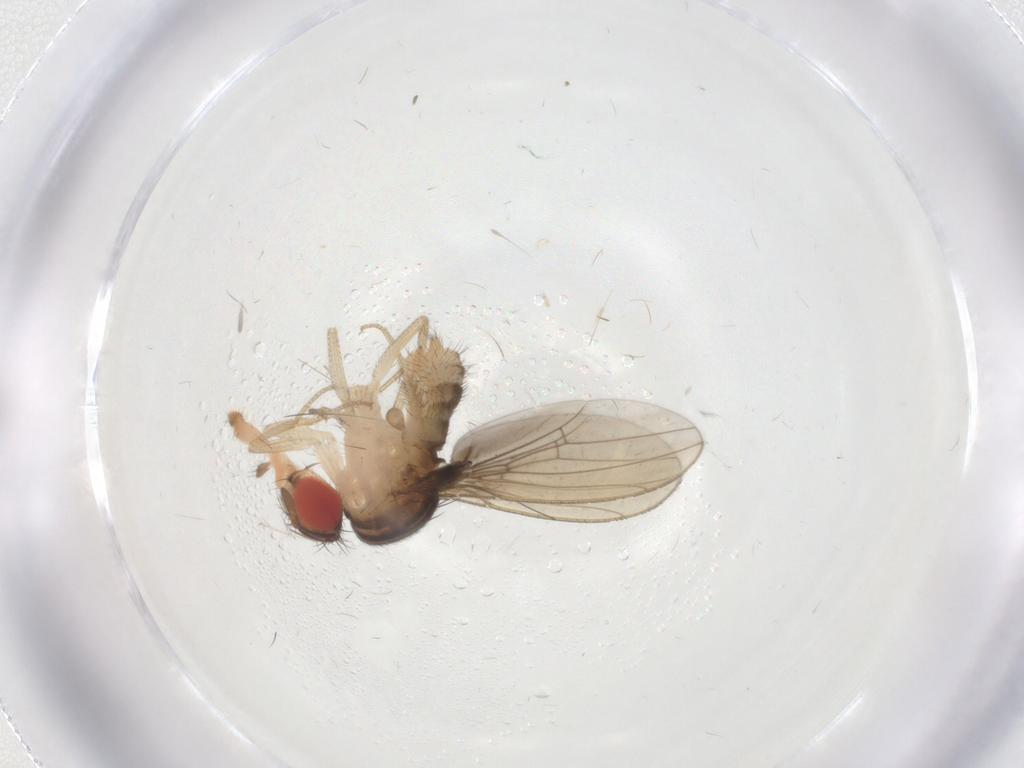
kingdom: Animalia
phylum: Arthropoda
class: Insecta
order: Diptera
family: Drosophilidae
